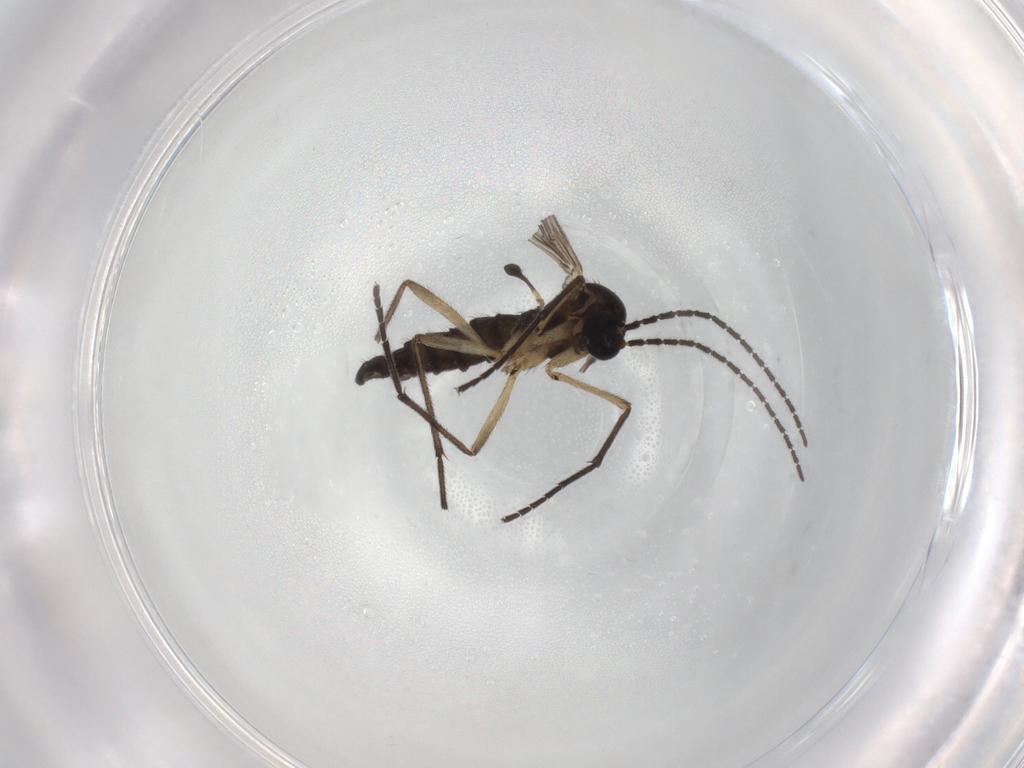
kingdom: Animalia
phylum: Arthropoda
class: Insecta
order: Diptera
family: Sciaridae
